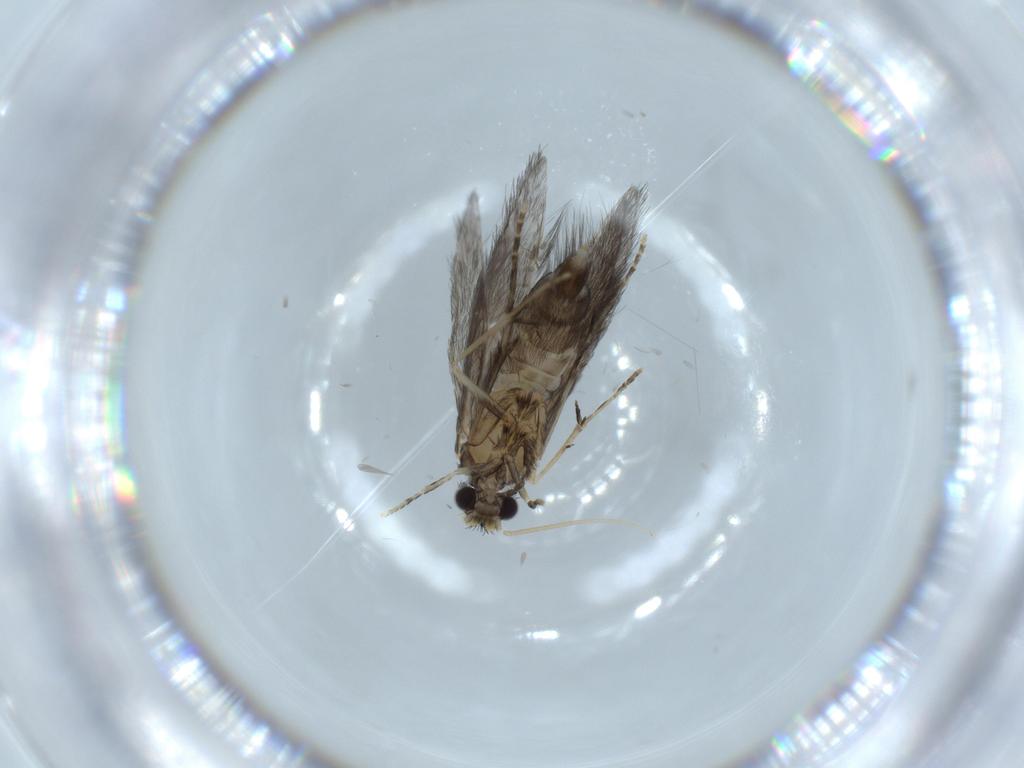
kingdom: Animalia
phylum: Arthropoda
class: Insecta
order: Trichoptera
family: Hydroptilidae
